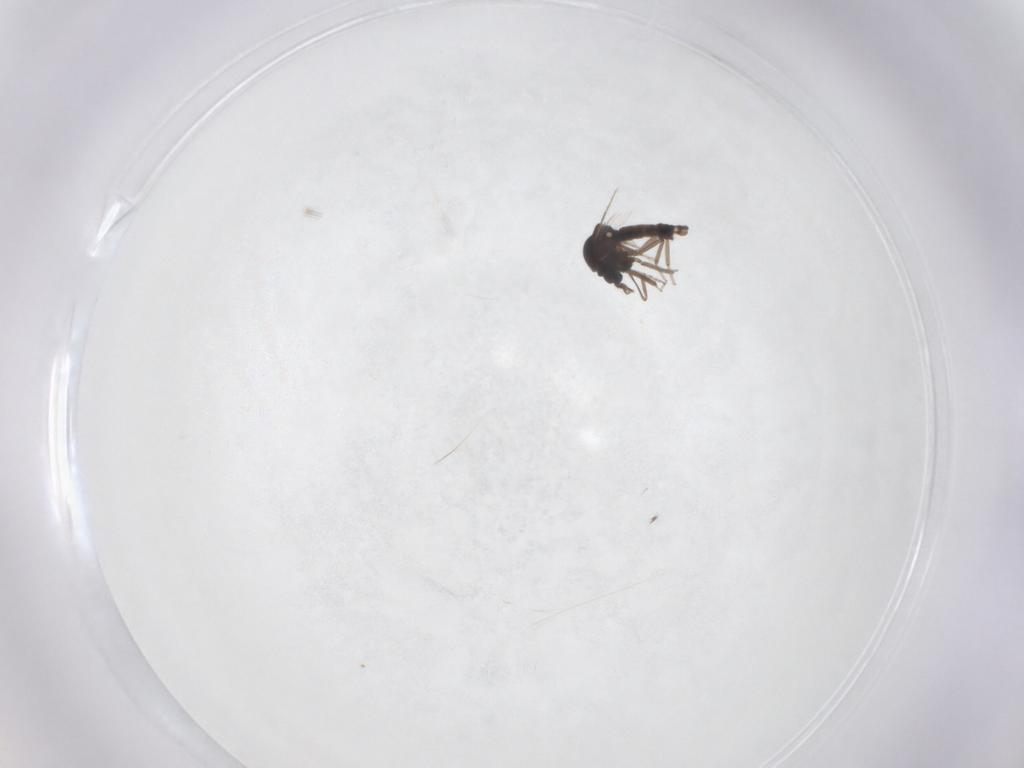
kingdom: Animalia
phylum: Arthropoda
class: Insecta
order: Diptera
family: Ceratopogonidae
